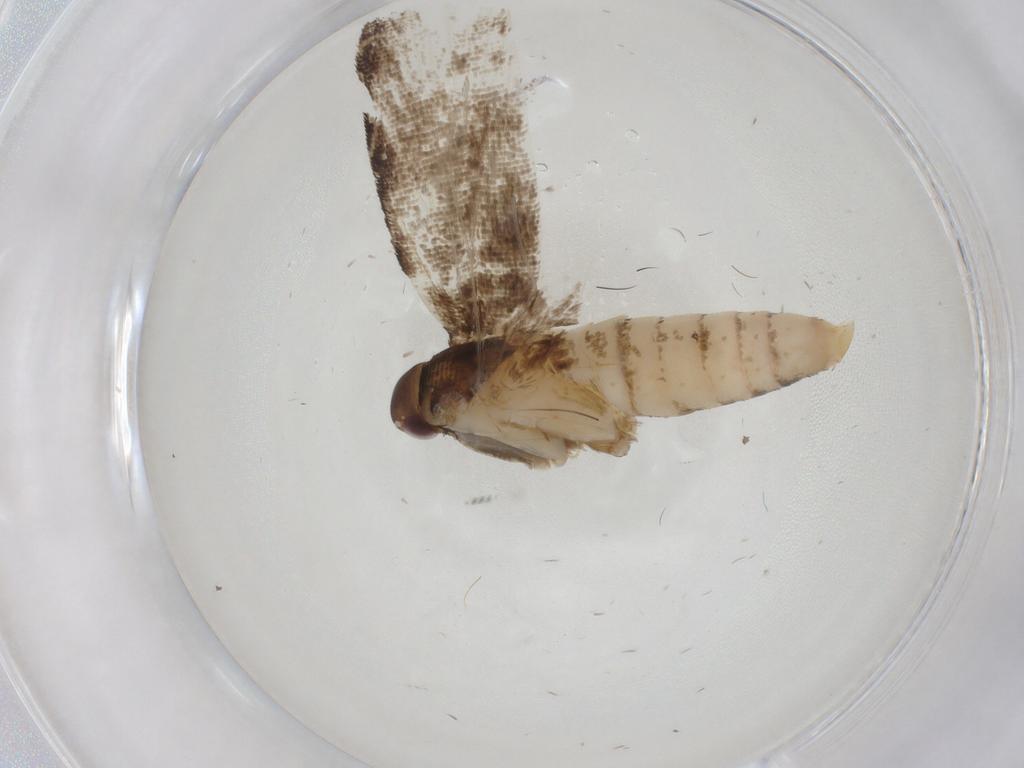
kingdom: Animalia
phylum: Arthropoda
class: Insecta
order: Lepidoptera
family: Gelechiidae
